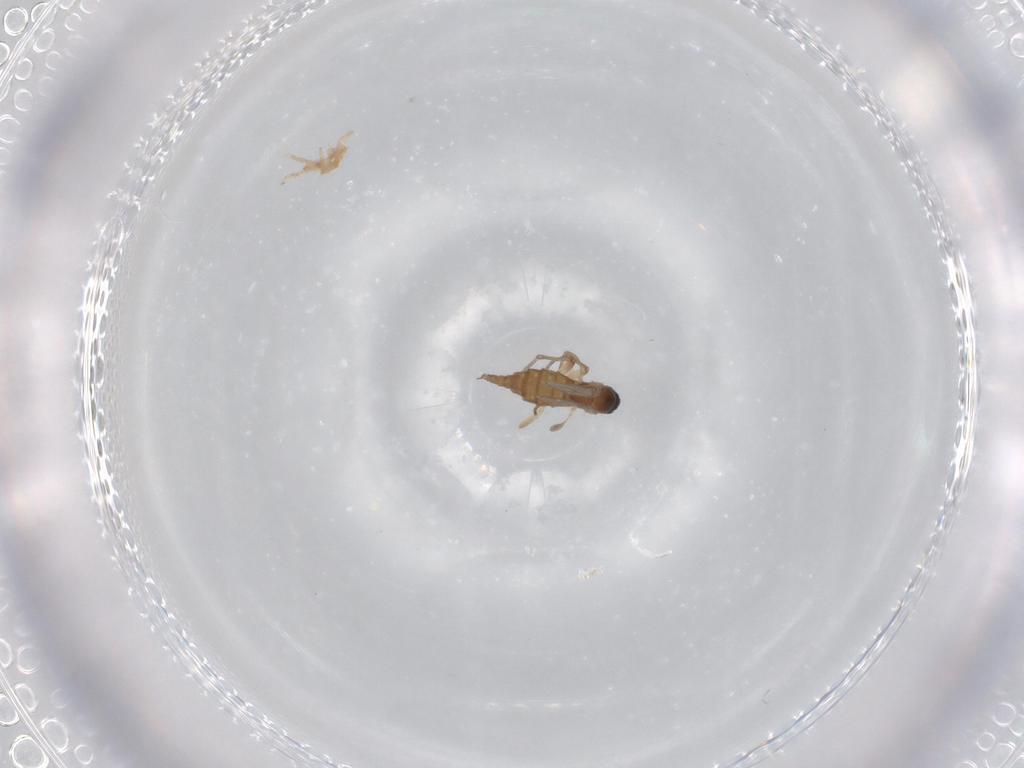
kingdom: Animalia
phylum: Arthropoda
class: Insecta
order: Diptera
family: Sciaridae
